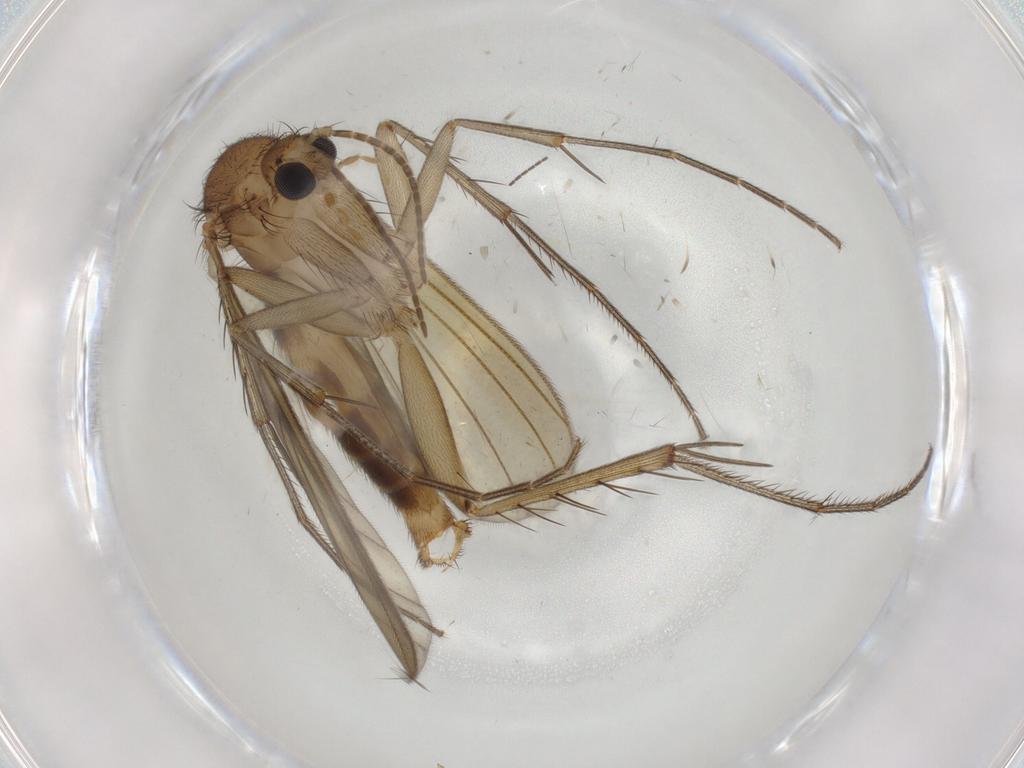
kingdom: Animalia
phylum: Arthropoda
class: Insecta
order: Diptera
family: Mycetophilidae
